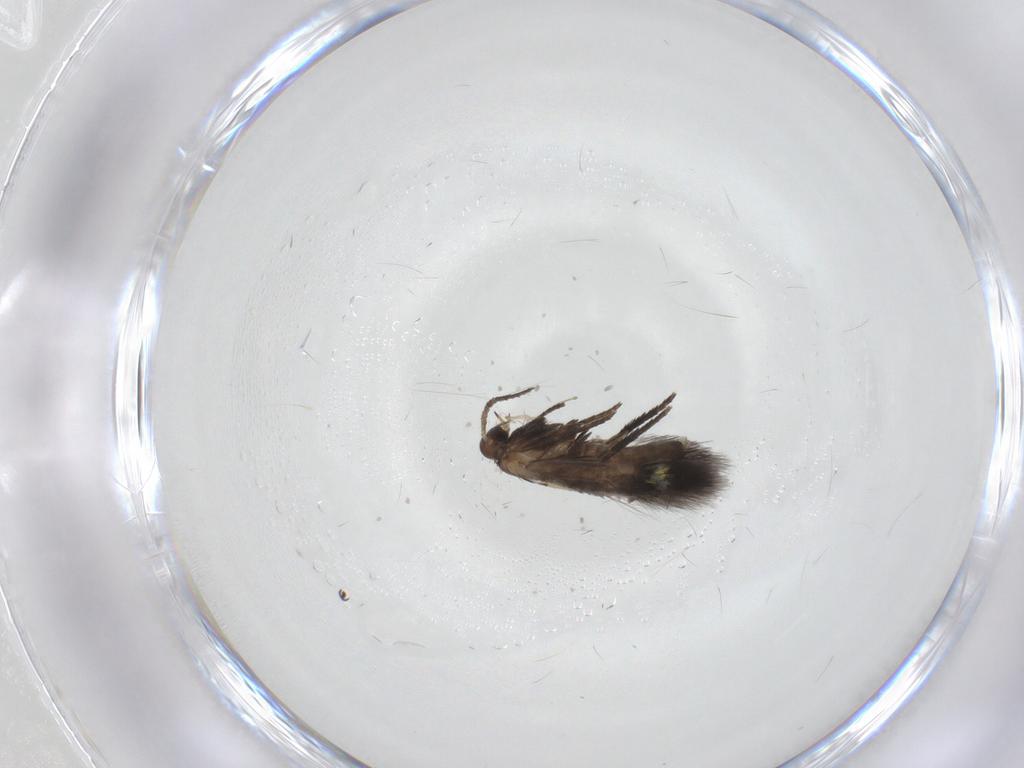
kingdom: Animalia
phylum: Arthropoda
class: Insecta
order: Lepidoptera
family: Heliozelidae
